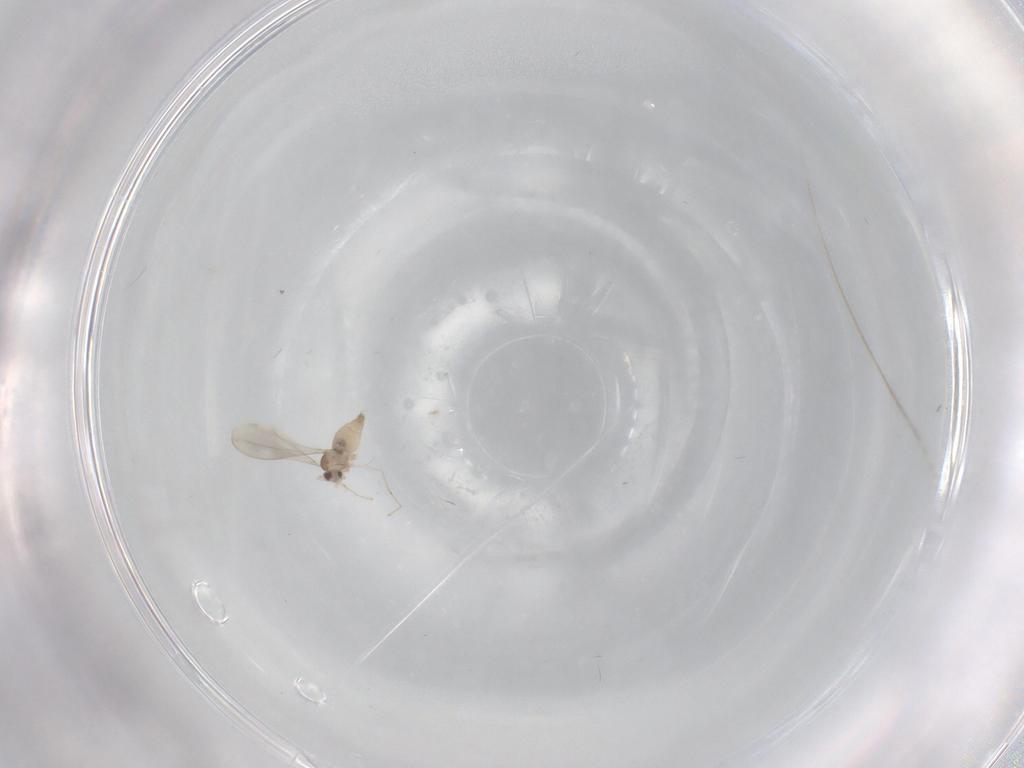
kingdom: Animalia
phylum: Arthropoda
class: Insecta
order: Diptera
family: Cecidomyiidae
